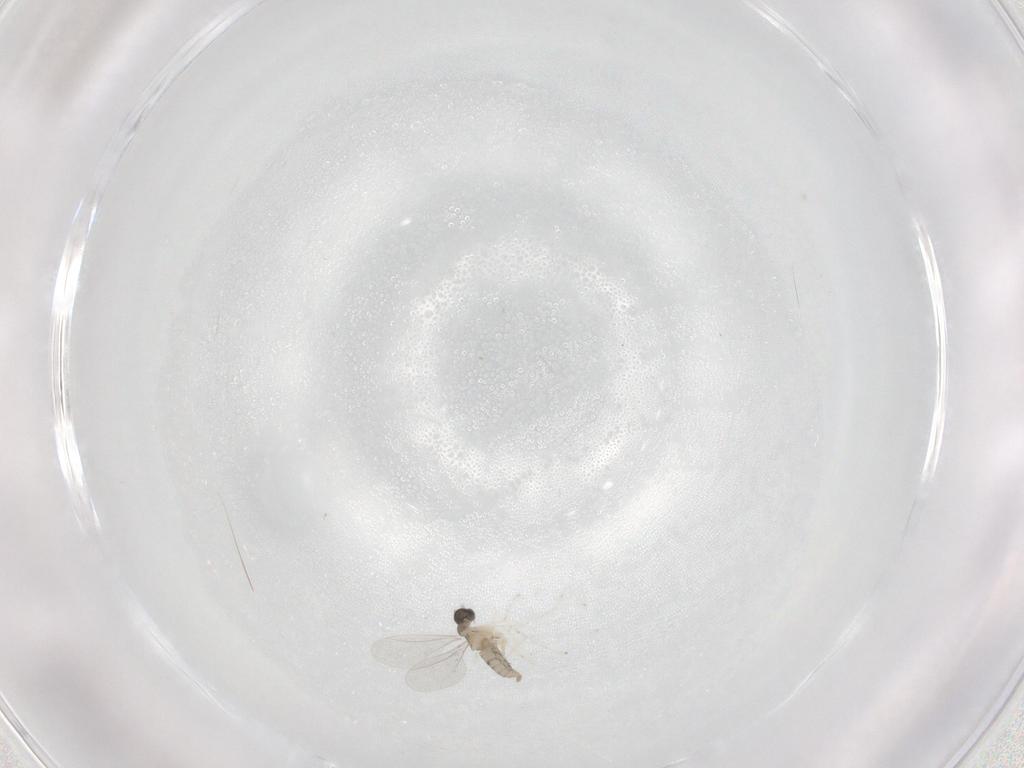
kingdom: Animalia
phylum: Arthropoda
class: Insecta
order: Diptera
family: Cecidomyiidae
